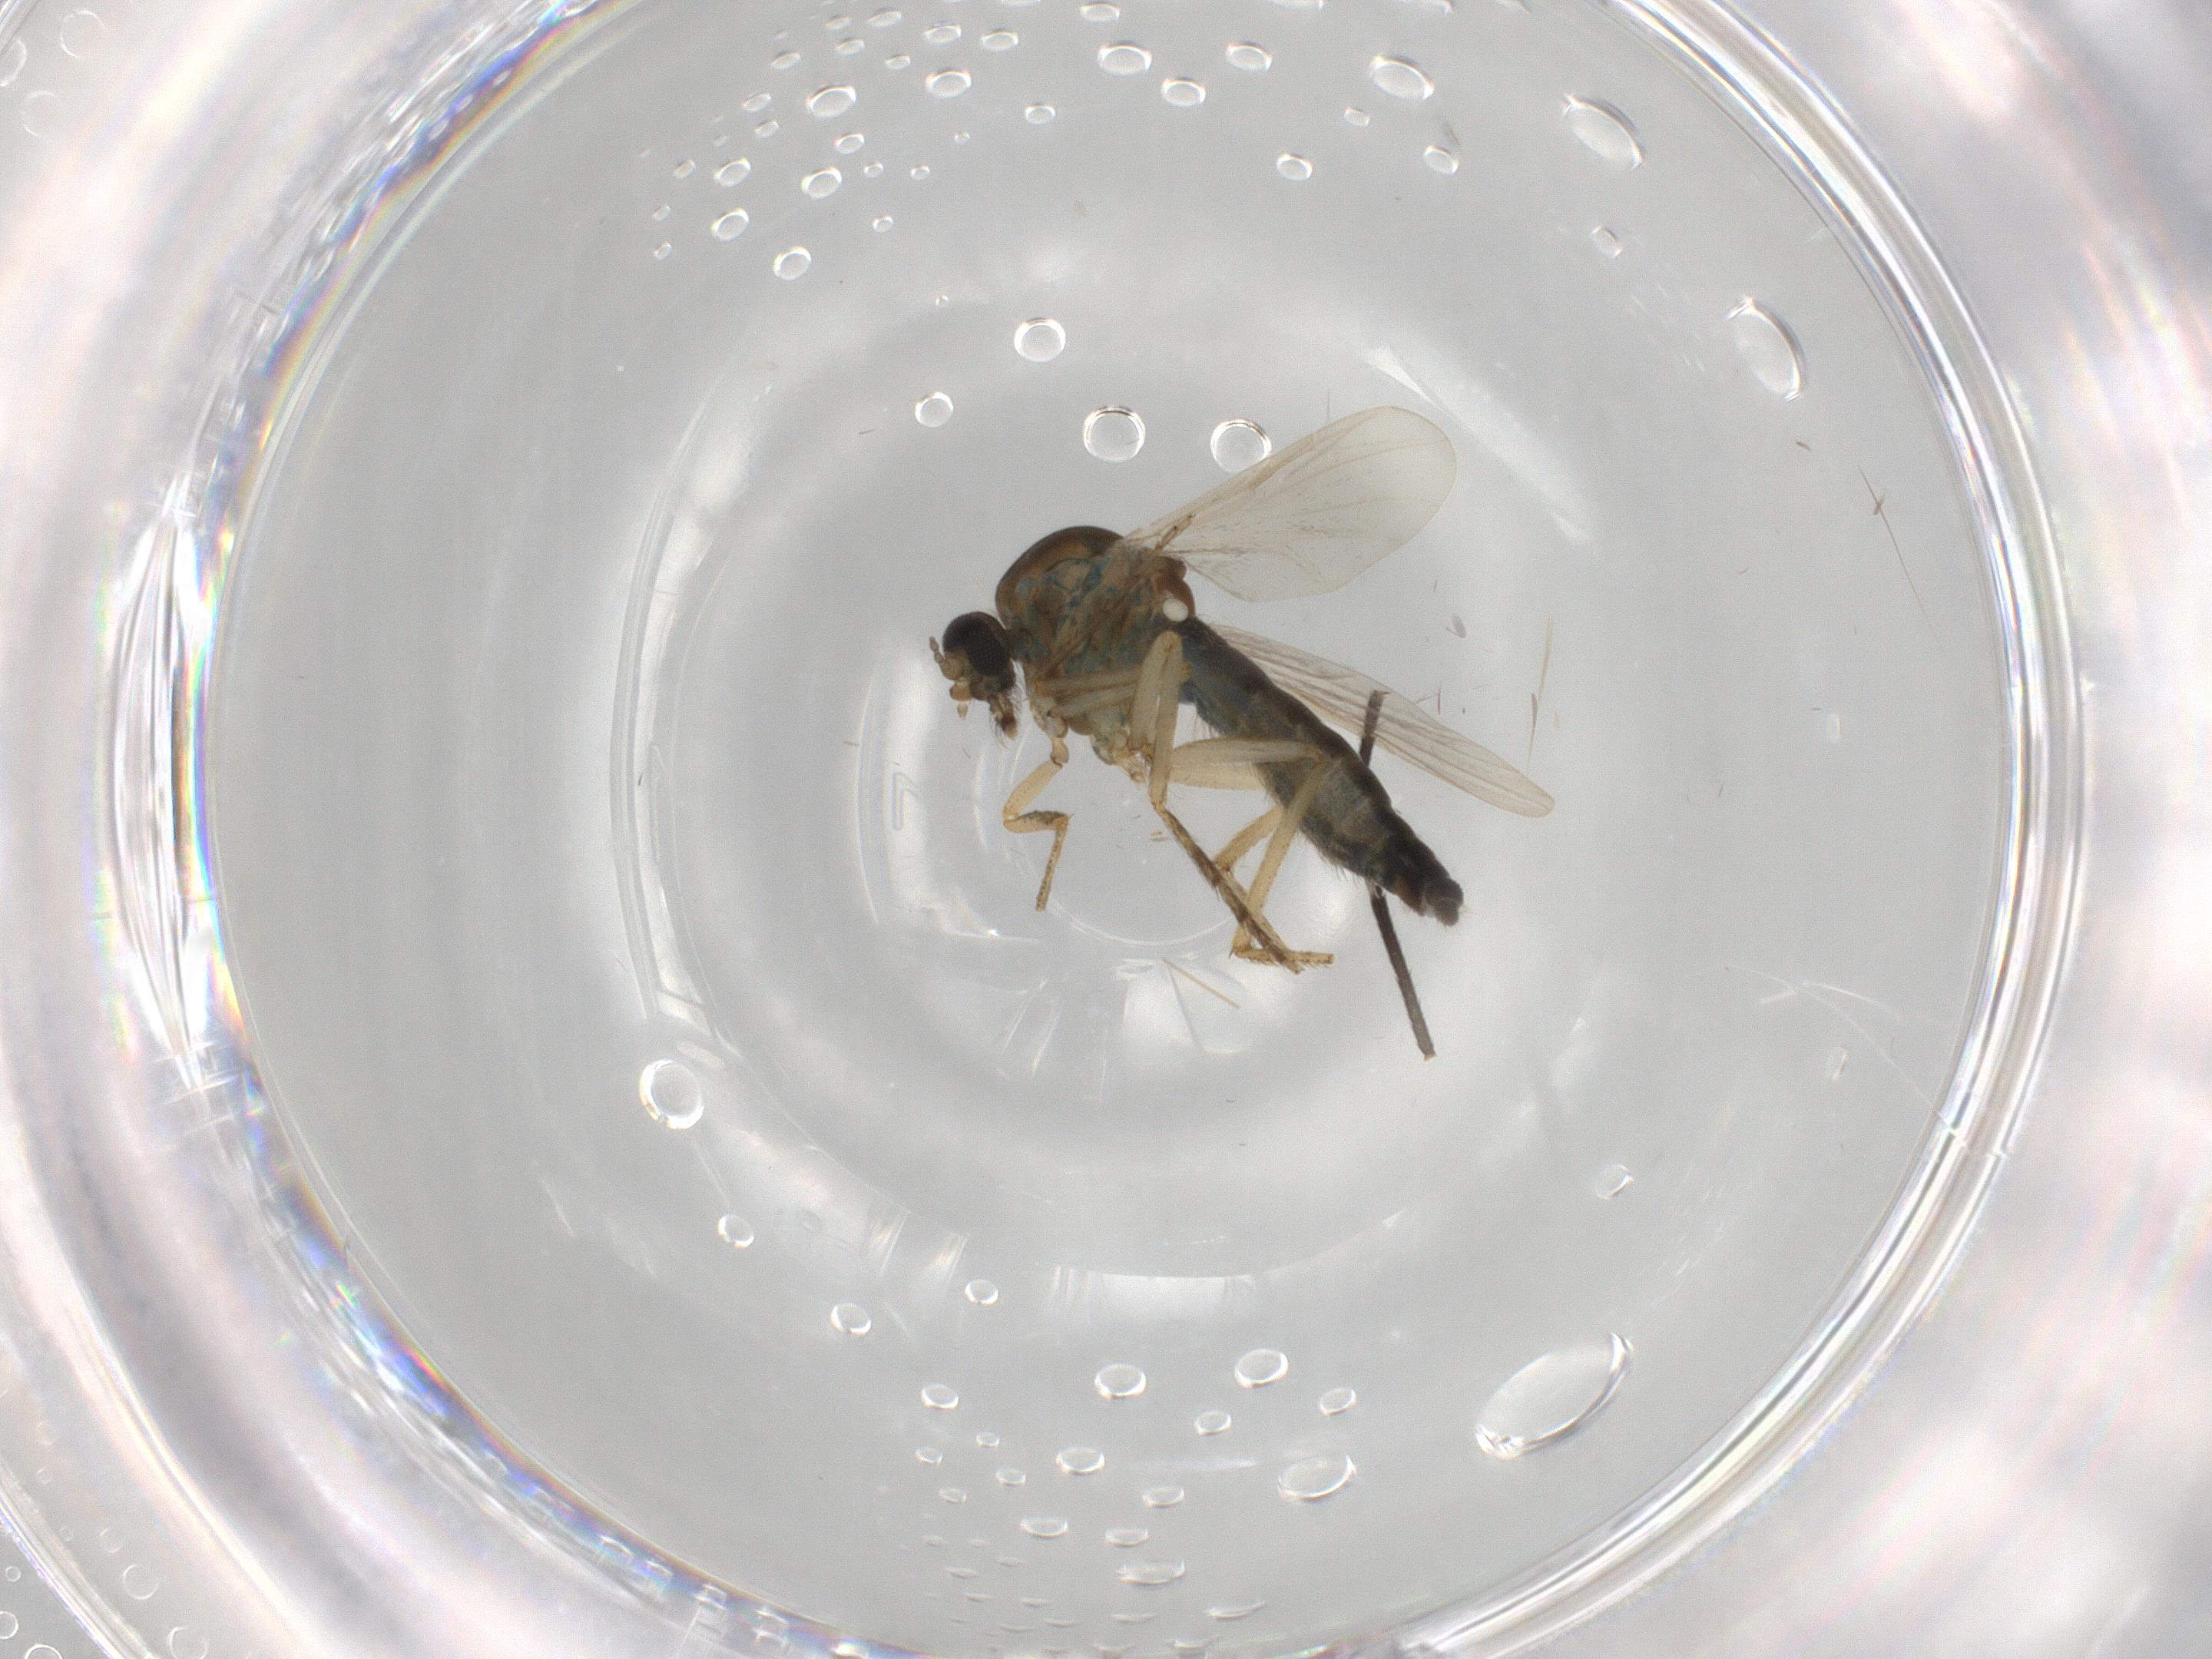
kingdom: Animalia
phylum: Arthropoda
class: Insecta
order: Diptera
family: Ceratopogonidae
